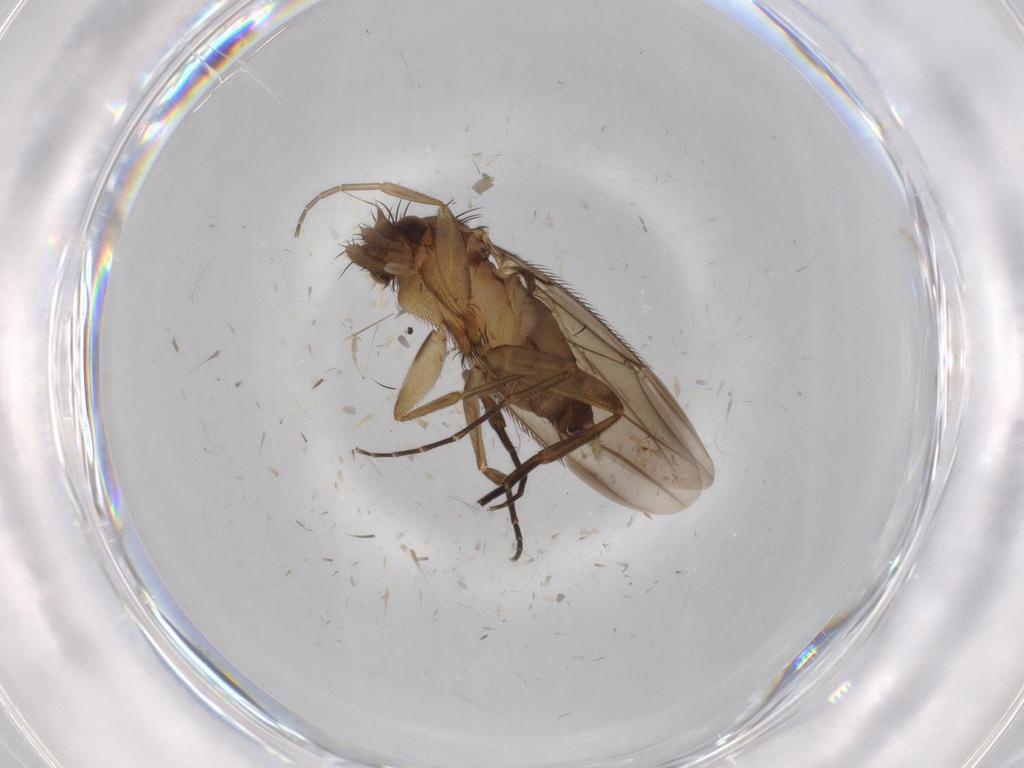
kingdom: Animalia
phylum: Arthropoda
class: Insecta
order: Diptera
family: Phoridae
